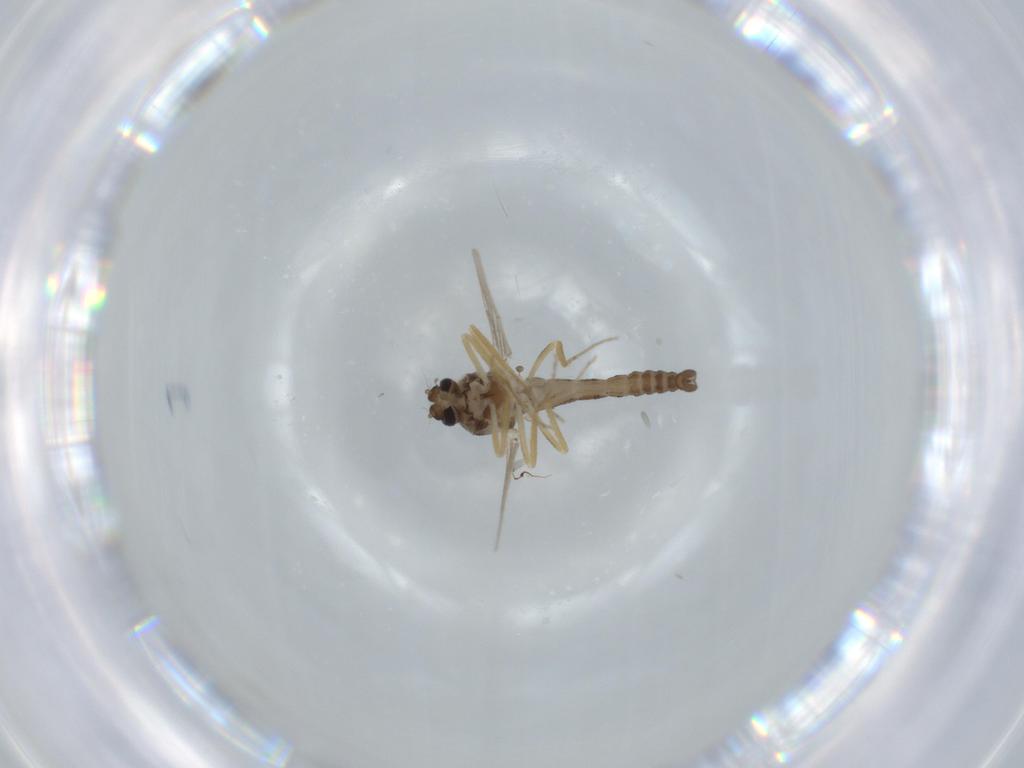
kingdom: Animalia
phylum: Arthropoda
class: Insecta
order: Diptera
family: Ceratopogonidae
